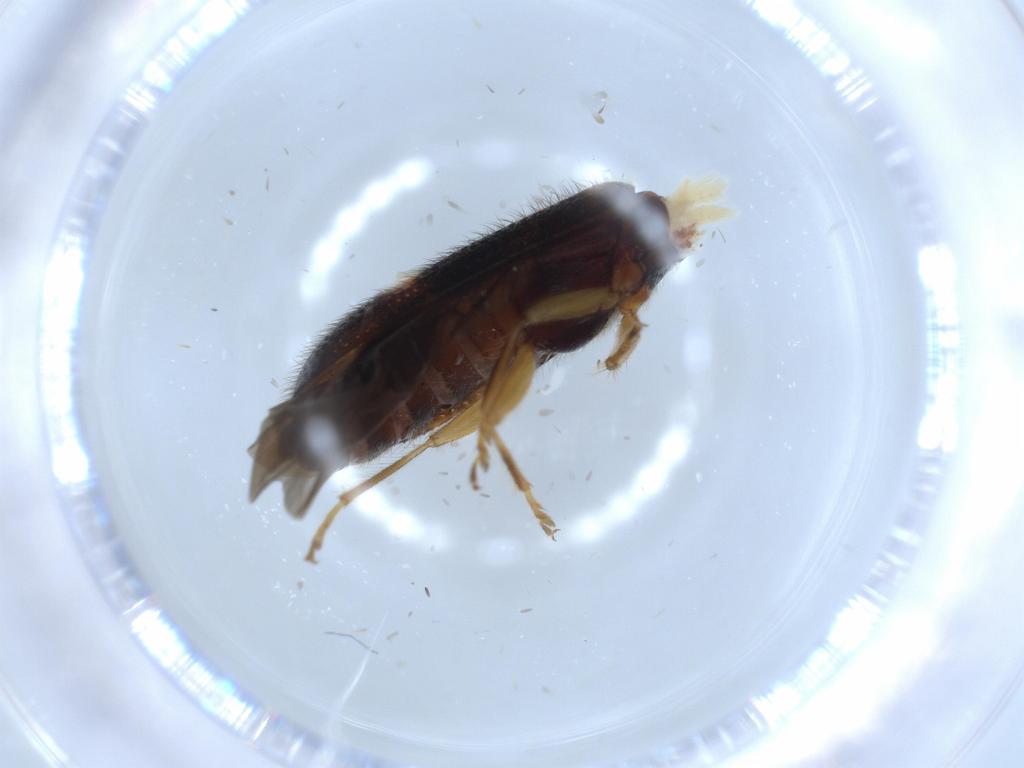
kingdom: Animalia
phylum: Arthropoda
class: Insecta
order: Coleoptera
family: Cleridae
